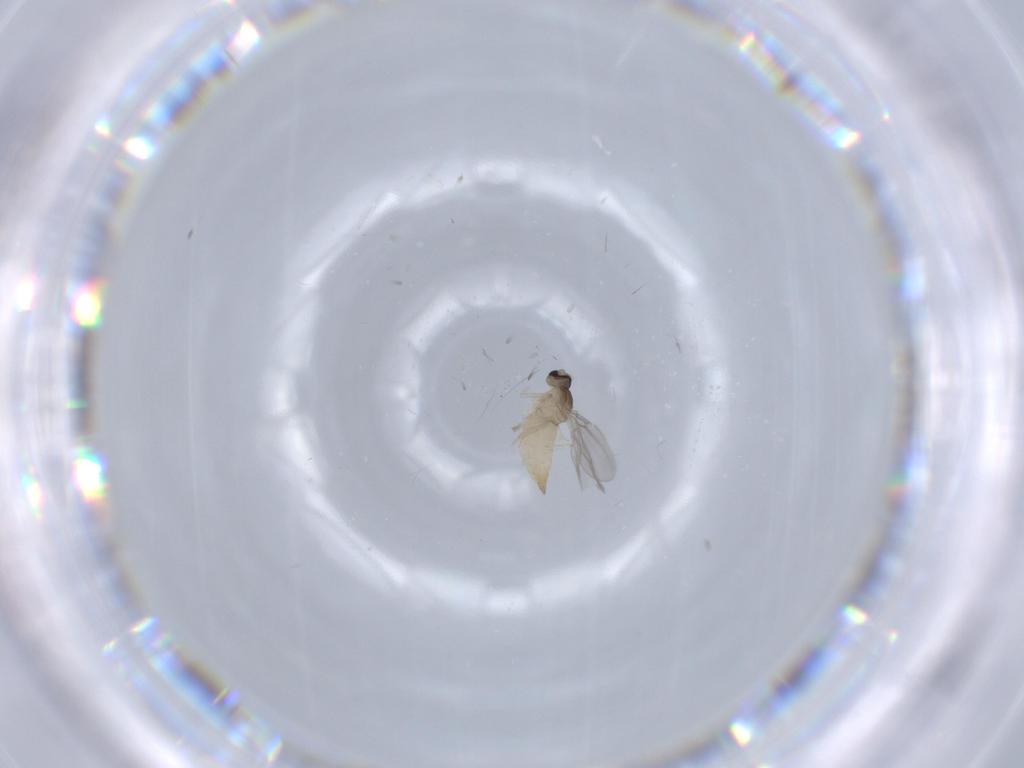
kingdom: Animalia
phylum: Arthropoda
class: Insecta
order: Diptera
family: Cecidomyiidae
